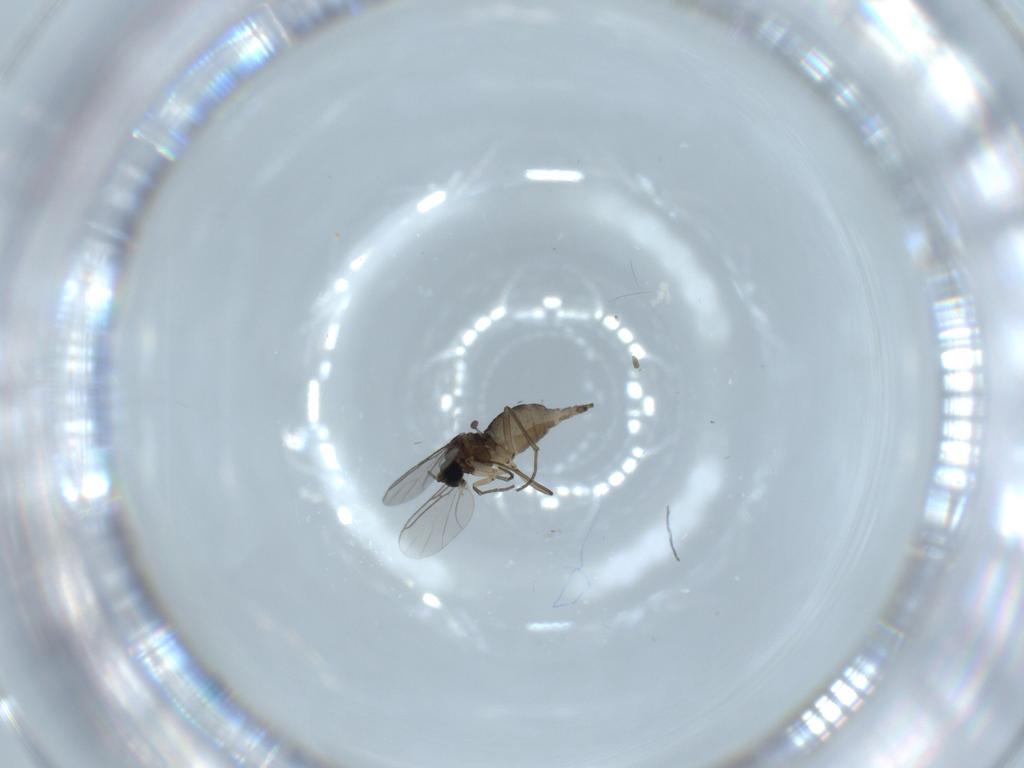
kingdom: Animalia
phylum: Arthropoda
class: Insecta
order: Diptera
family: Sciaridae
